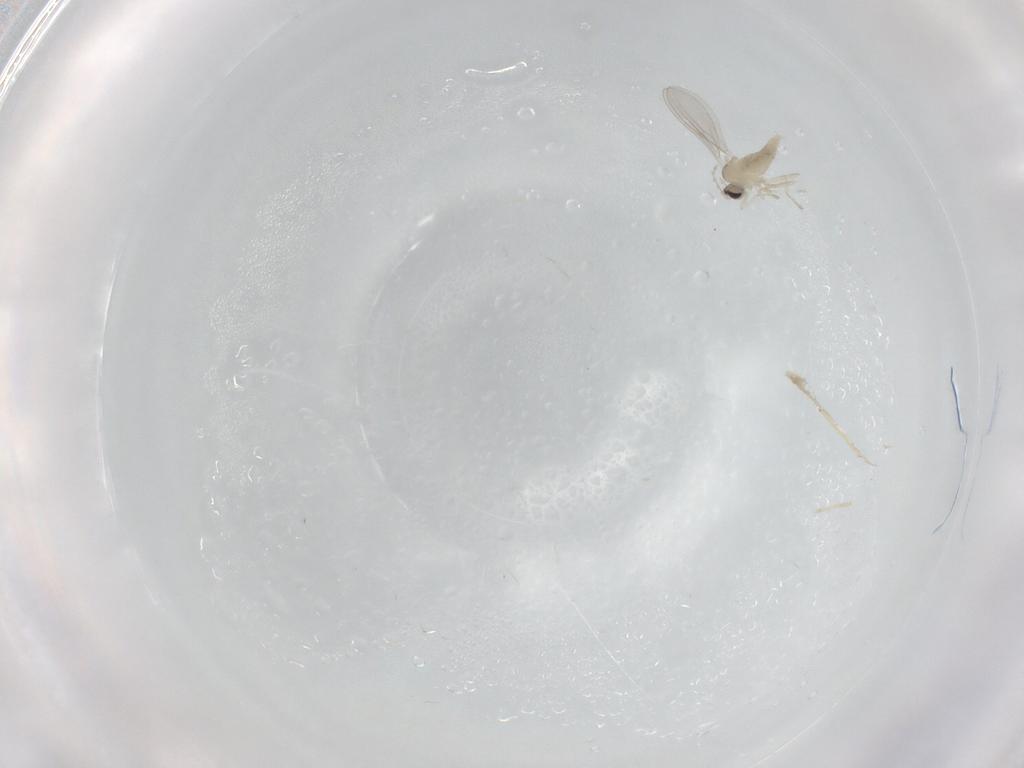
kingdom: Animalia
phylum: Arthropoda
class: Insecta
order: Diptera
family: Cecidomyiidae
